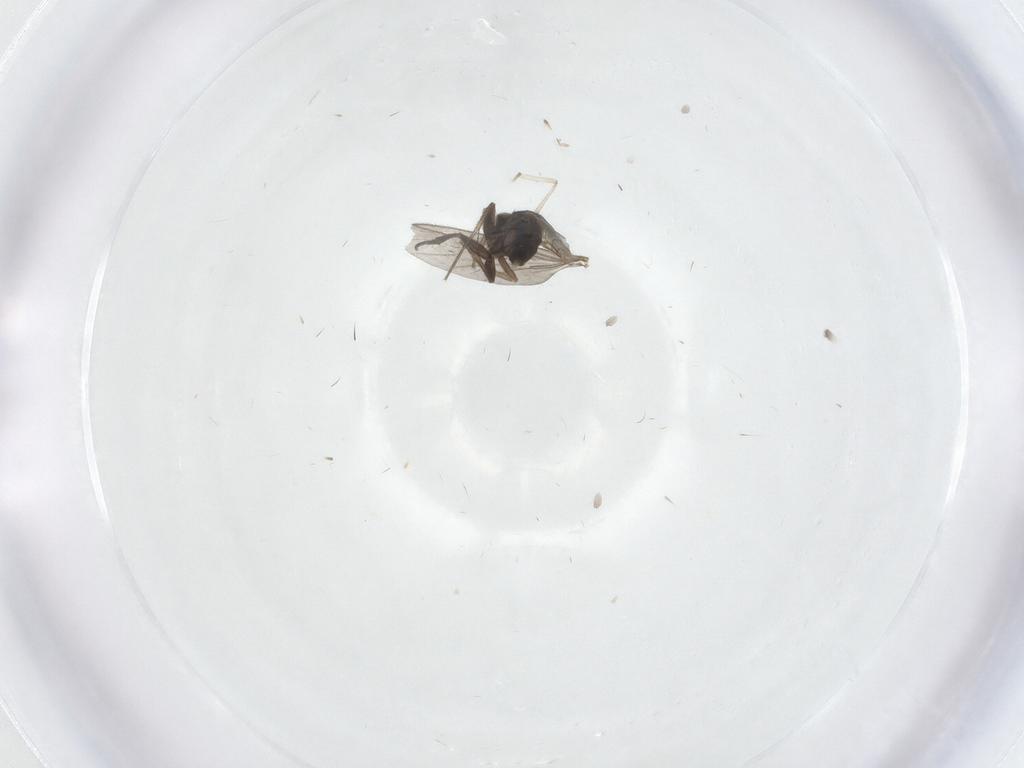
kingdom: Animalia
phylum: Arthropoda
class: Insecta
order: Diptera
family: Phoridae
